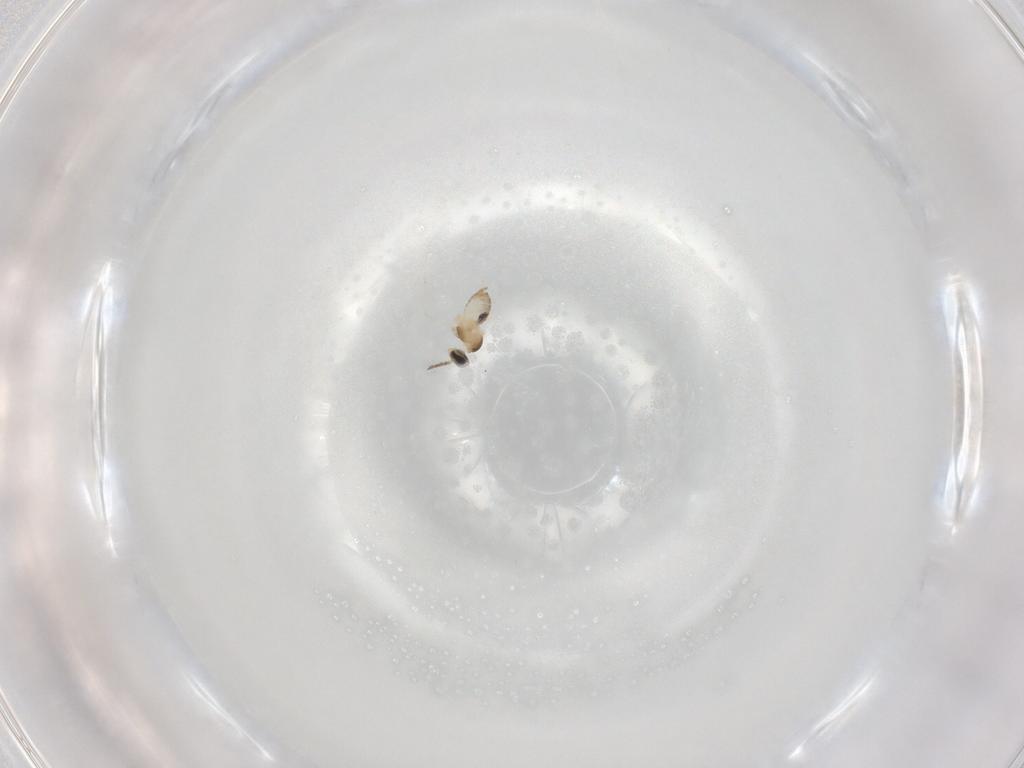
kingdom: Animalia
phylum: Arthropoda
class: Insecta
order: Diptera
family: Cecidomyiidae
